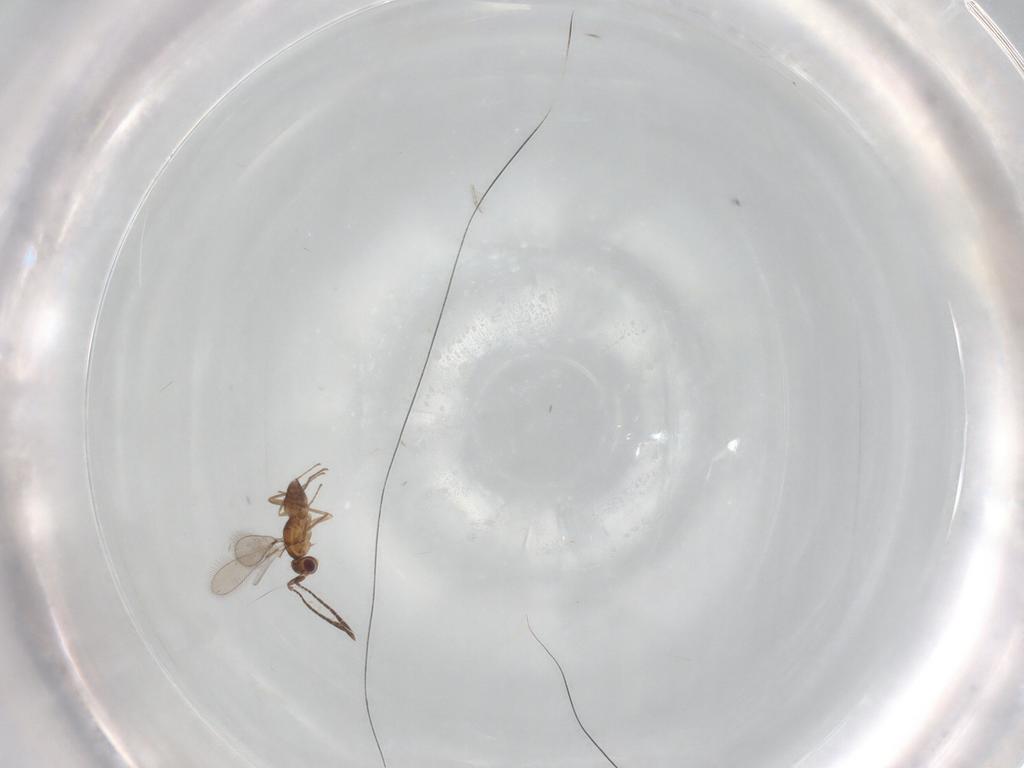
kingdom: Animalia
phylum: Arthropoda
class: Insecta
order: Hymenoptera
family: Mymaridae
